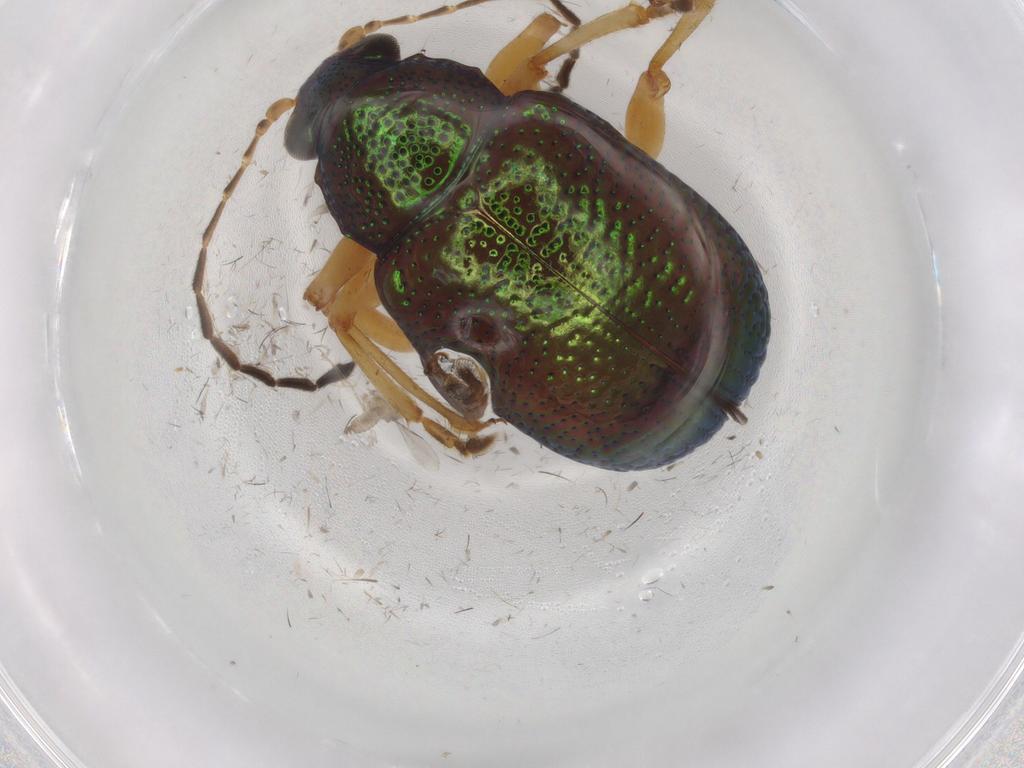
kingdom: Animalia
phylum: Arthropoda
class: Insecta
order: Coleoptera
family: Chrysomelidae
